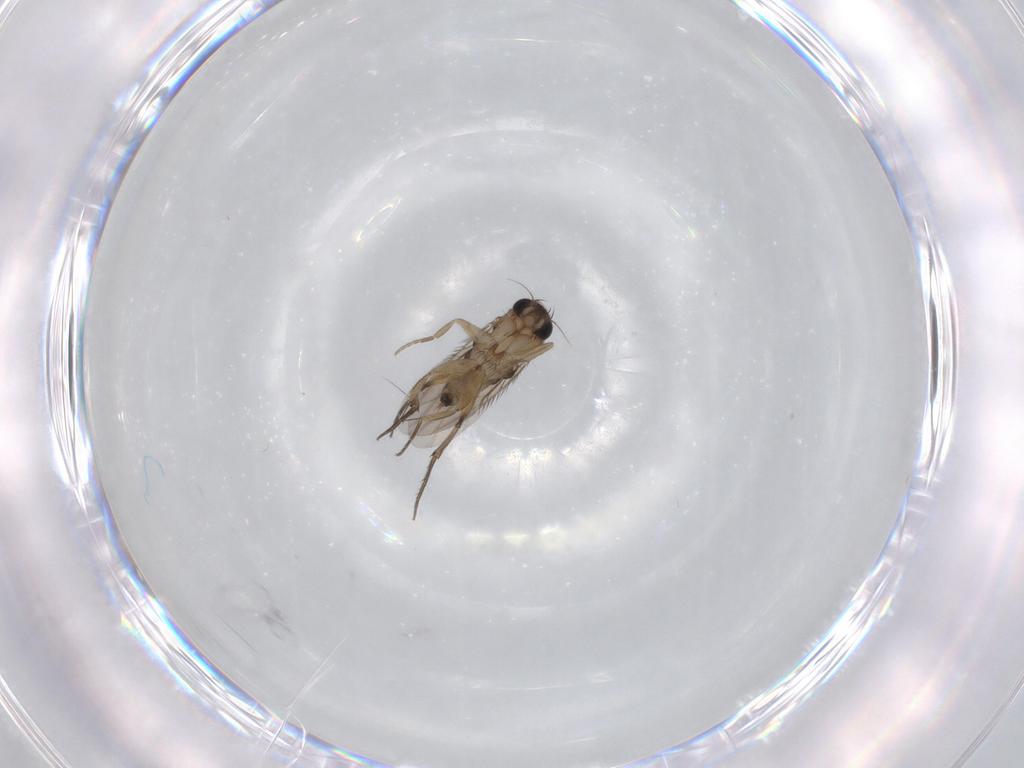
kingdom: Animalia
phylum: Arthropoda
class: Insecta
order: Diptera
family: Phoridae
